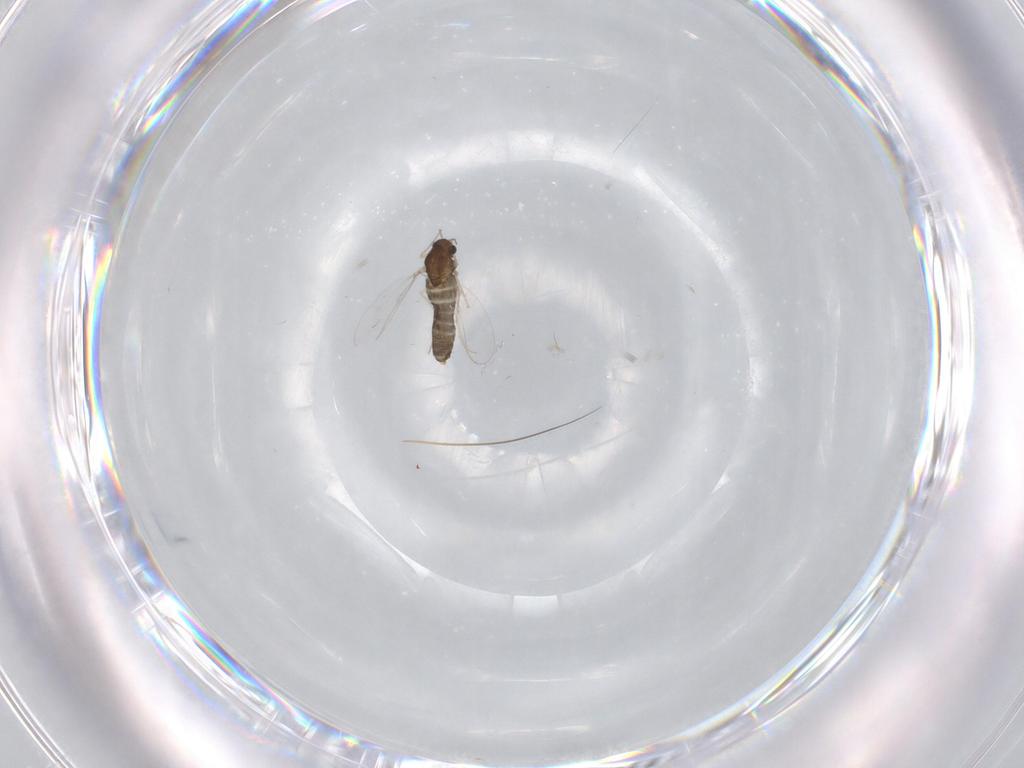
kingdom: Animalia
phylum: Arthropoda
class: Insecta
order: Diptera
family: Chironomidae
